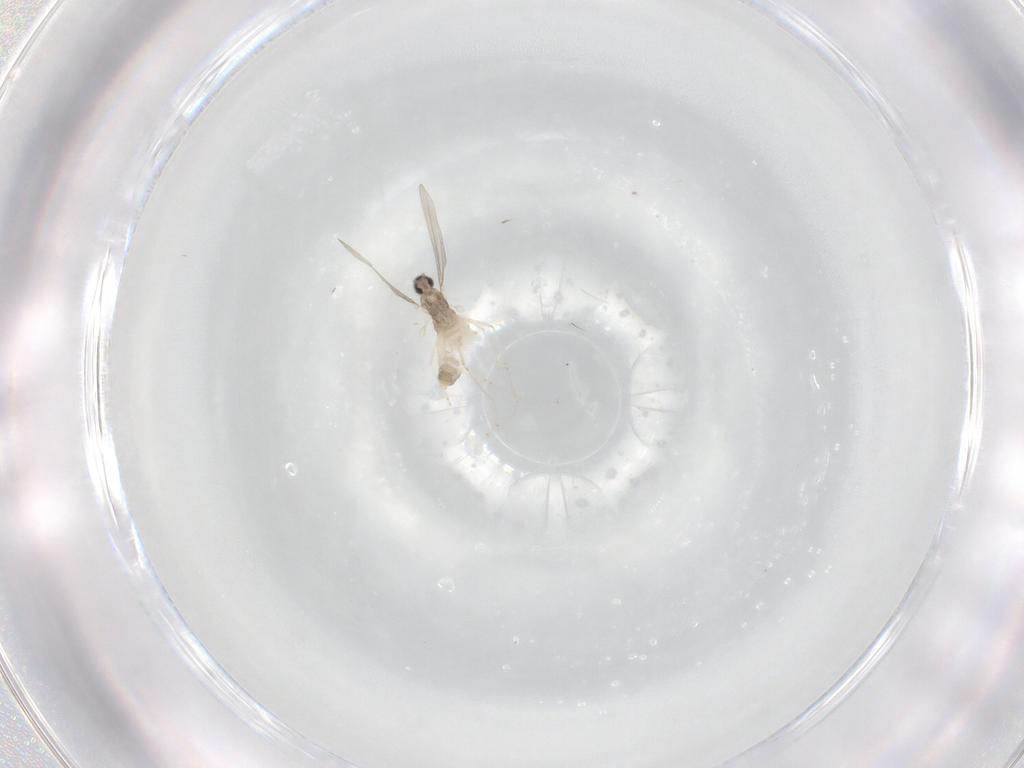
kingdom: Animalia
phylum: Arthropoda
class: Insecta
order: Diptera
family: Cecidomyiidae
